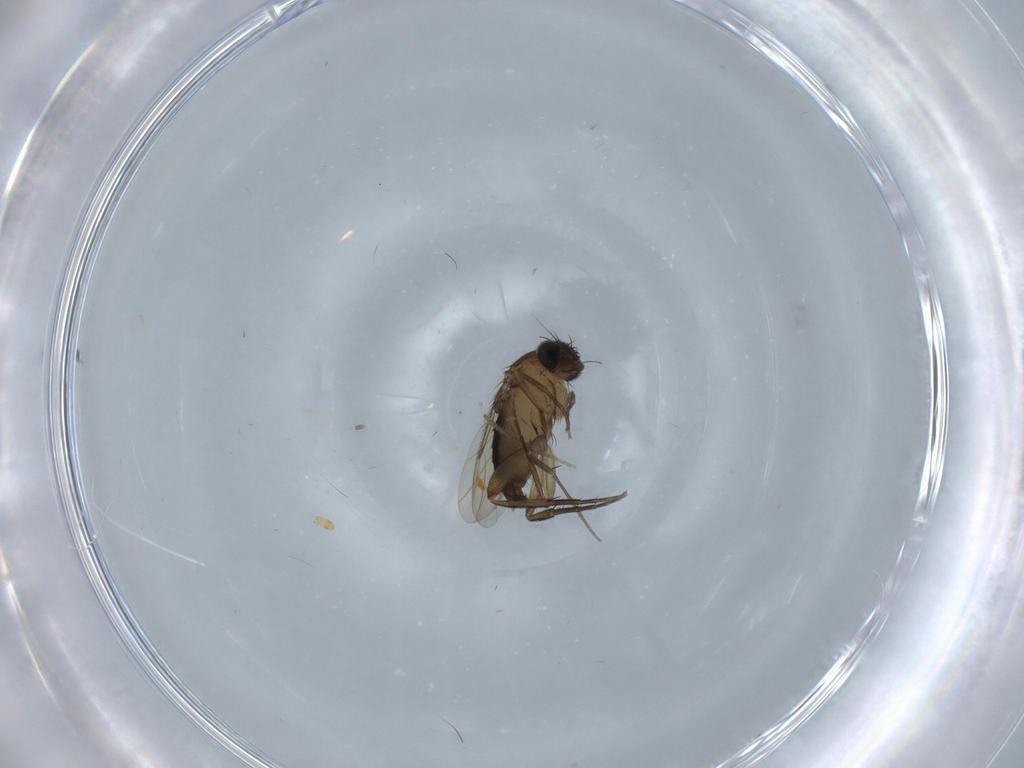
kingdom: Animalia
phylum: Arthropoda
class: Insecta
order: Diptera
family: Phoridae
